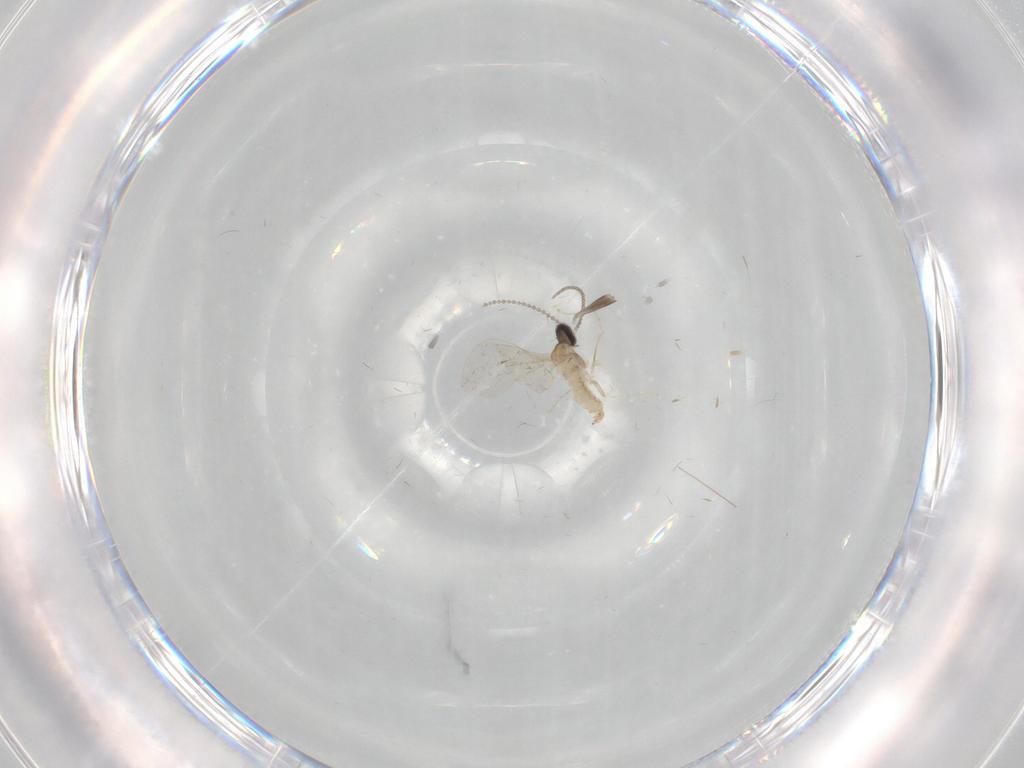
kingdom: Animalia
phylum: Arthropoda
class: Insecta
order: Diptera
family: Cecidomyiidae
